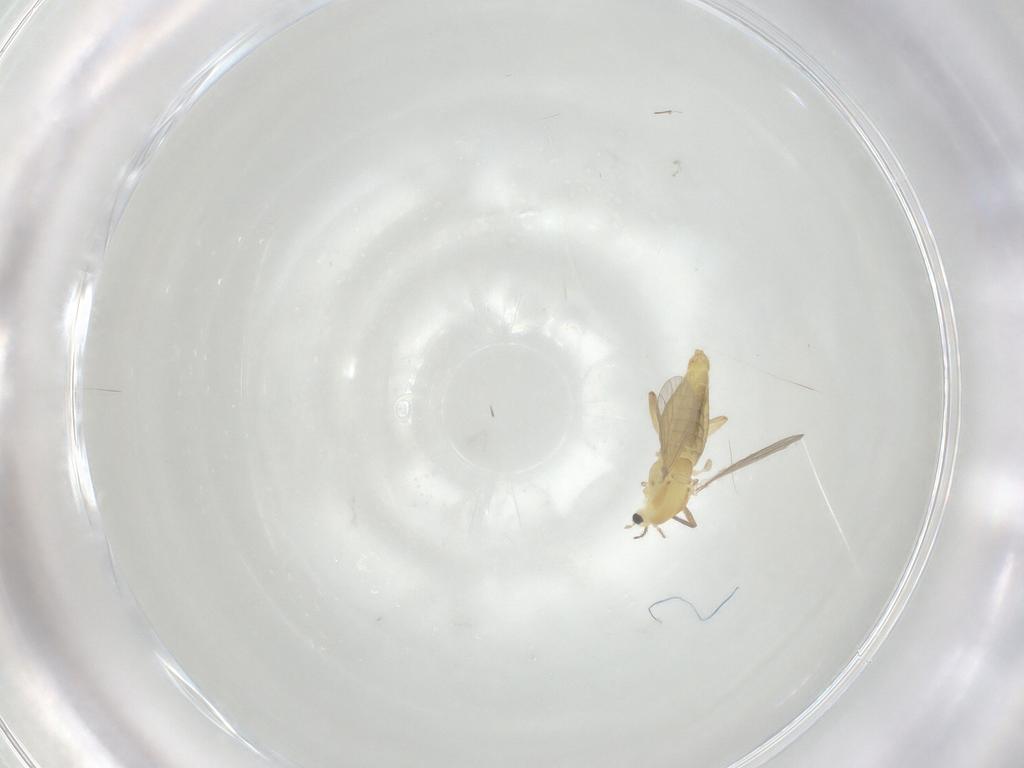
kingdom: Animalia
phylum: Arthropoda
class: Insecta
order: Diptera
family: Chironomidae
